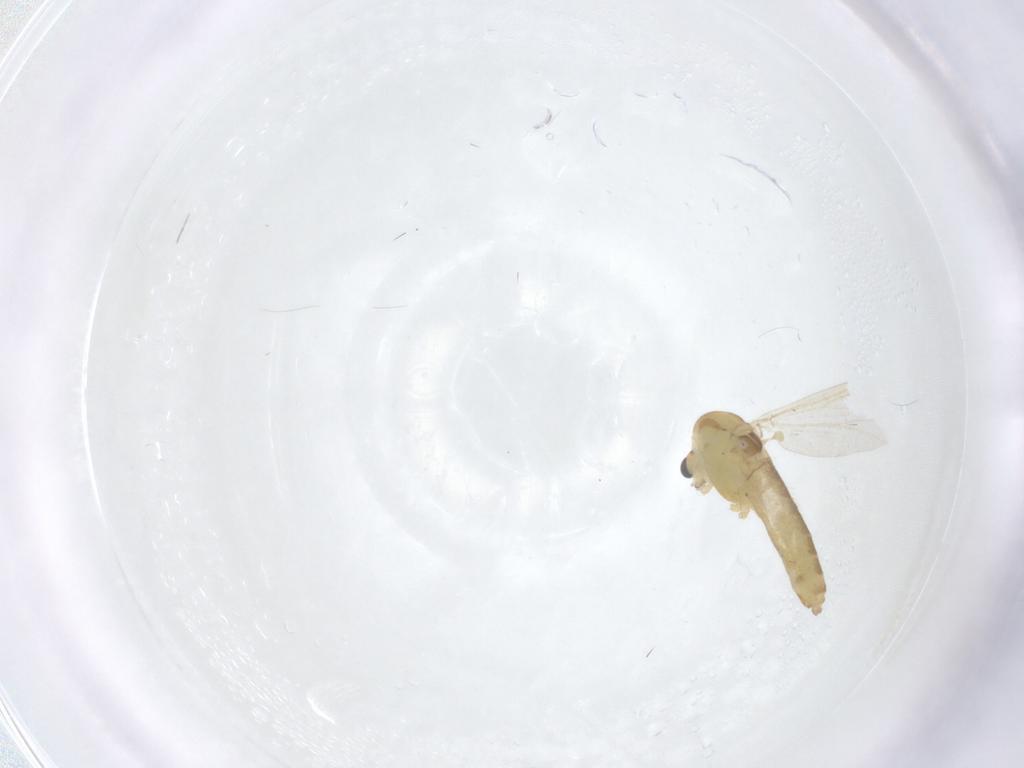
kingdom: Animalia
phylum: Arthropoda
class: Insecta
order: Diptera
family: Chironomidae
